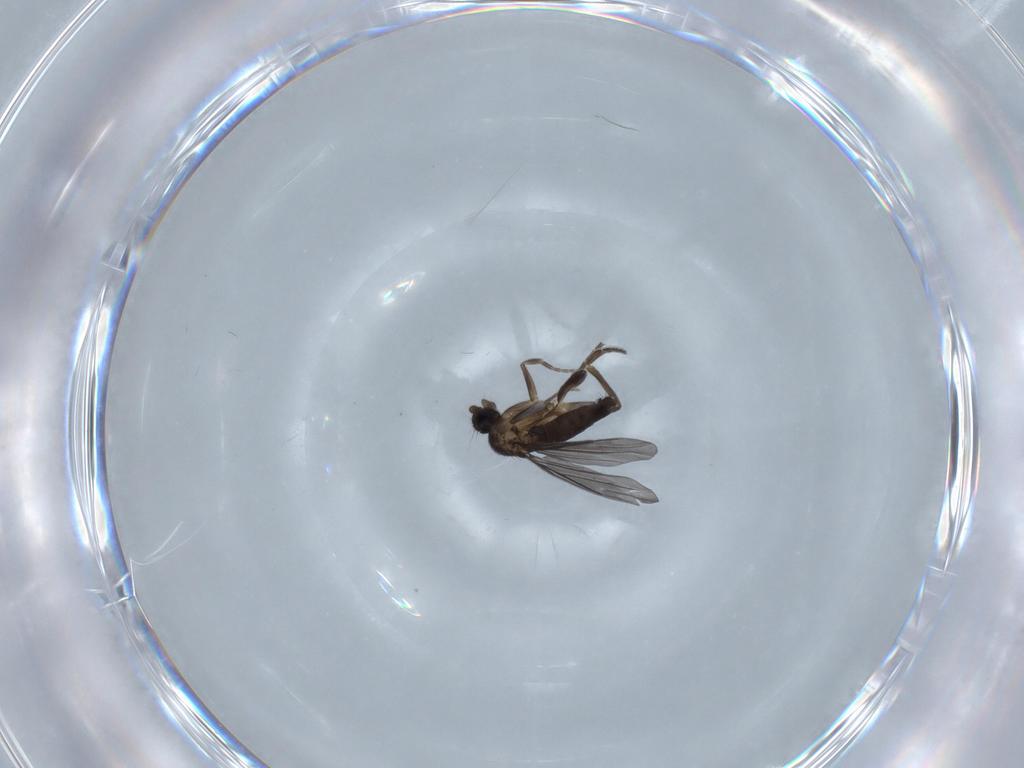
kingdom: Animalia
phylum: Arthropoda
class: Insecta
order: Diptera
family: Phoridae
